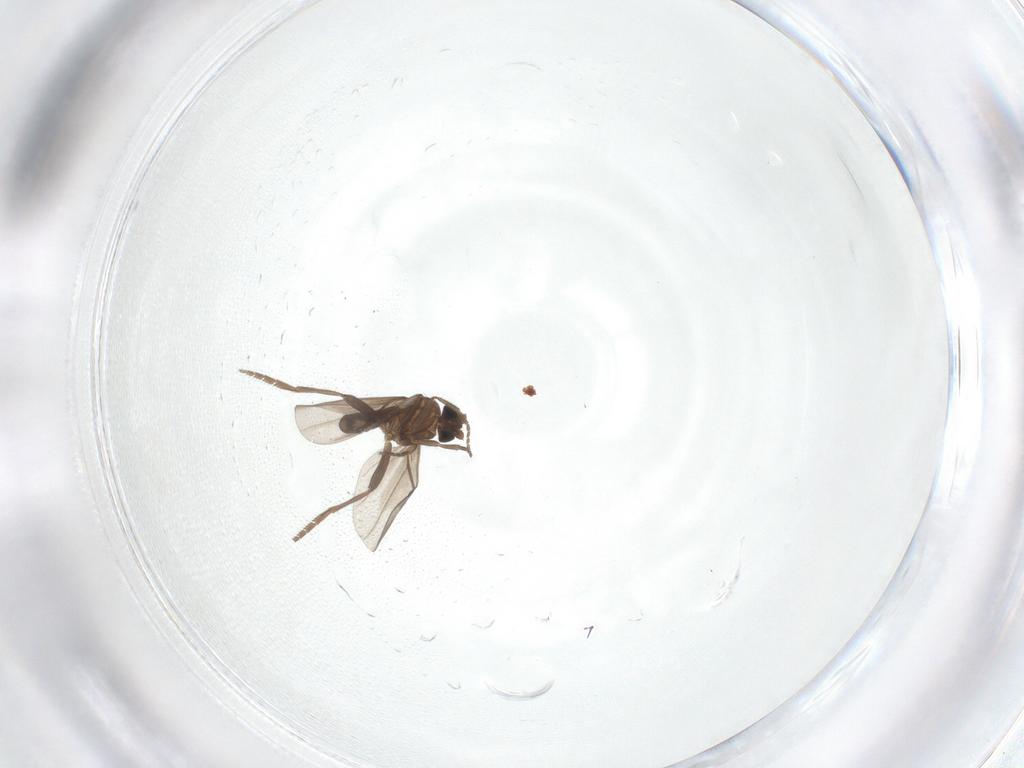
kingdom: Animalia
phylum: Arthropoda
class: Insecta
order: Diptera
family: Phoridae
